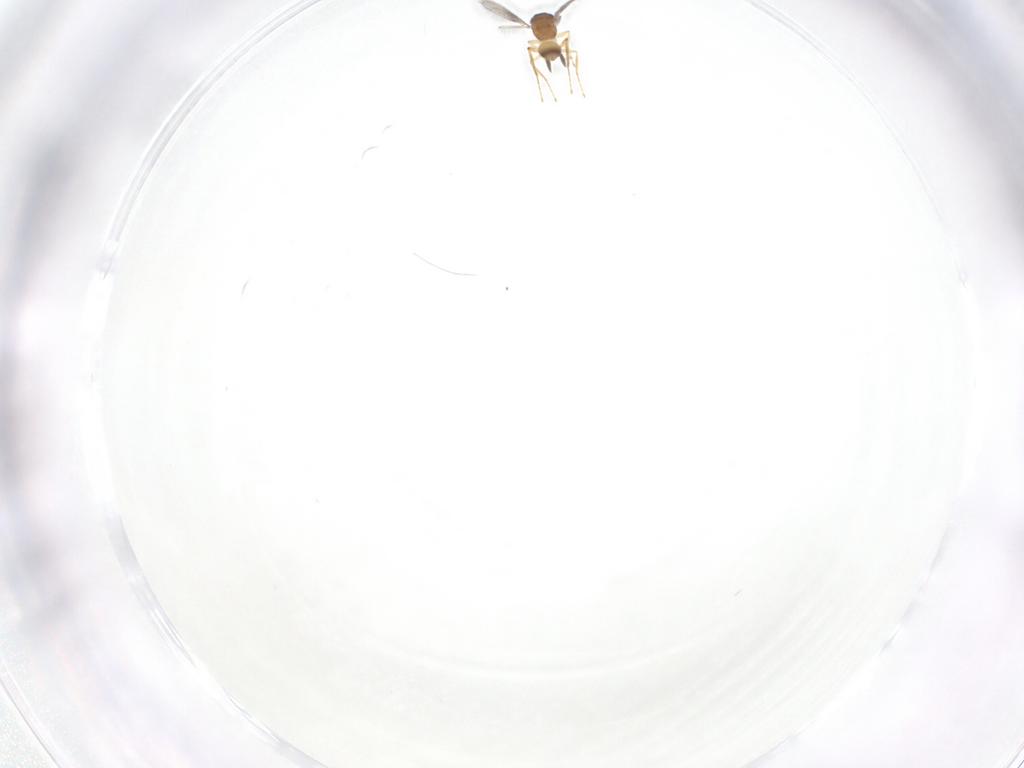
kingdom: Animalia
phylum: Arthropoda
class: Insecta
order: Hymenoptera
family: Mymaridae
